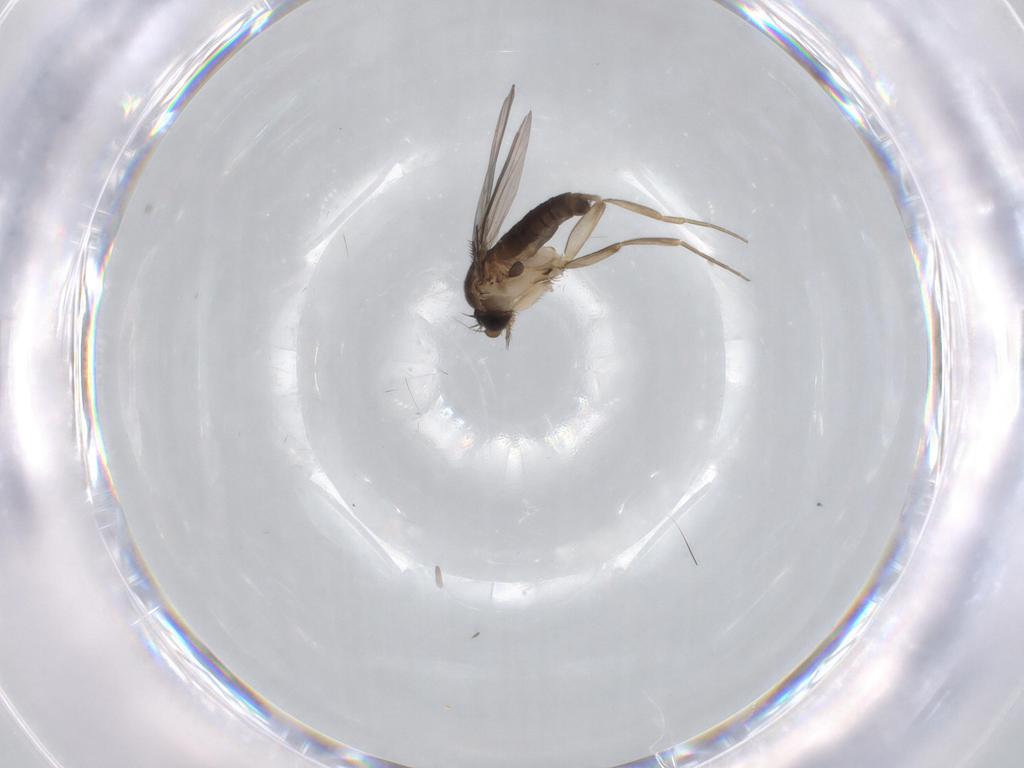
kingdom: Animalia
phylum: Arthropoda
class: Insecta
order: Diptera
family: Phoridae
